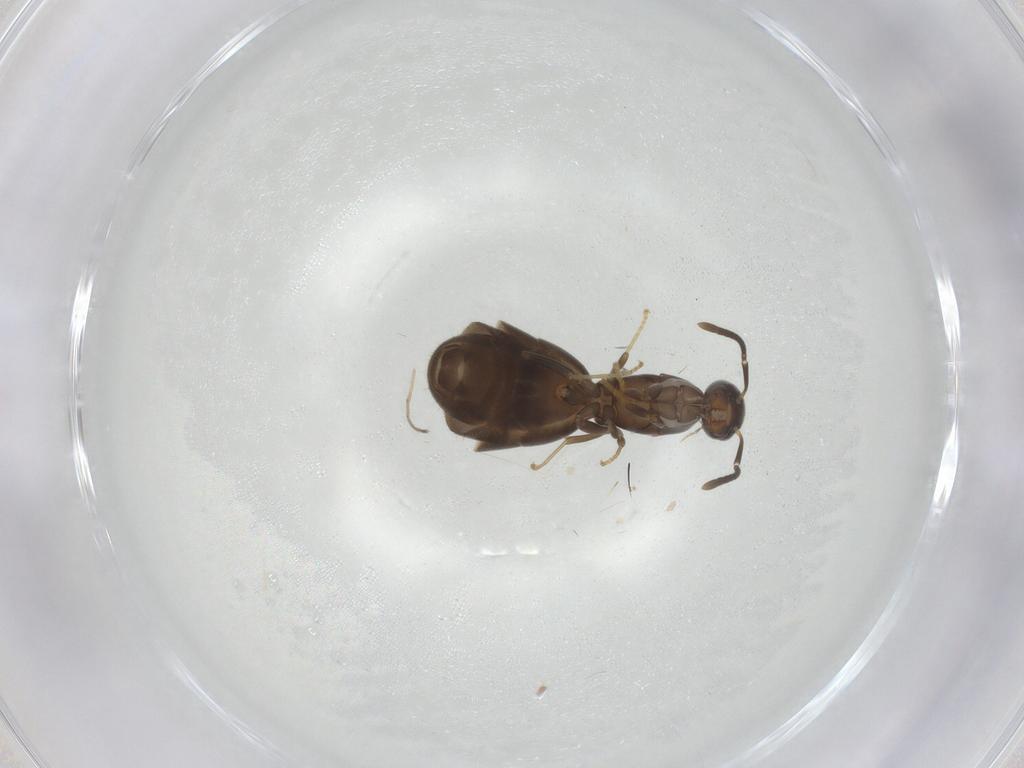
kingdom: Animalia
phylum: Arthropoda
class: Insecta
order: Hymenoptera
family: Formicidae
